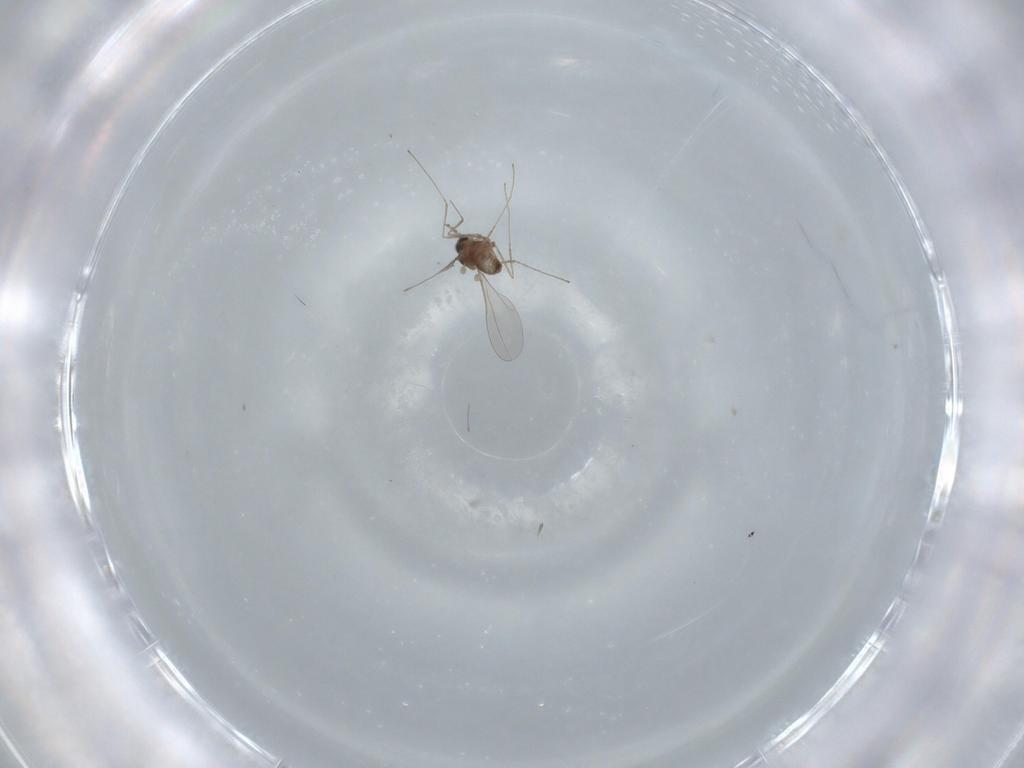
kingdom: Animalia
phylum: Arthropoda
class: Insecta
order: Diptera
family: Cecidomyiidae
